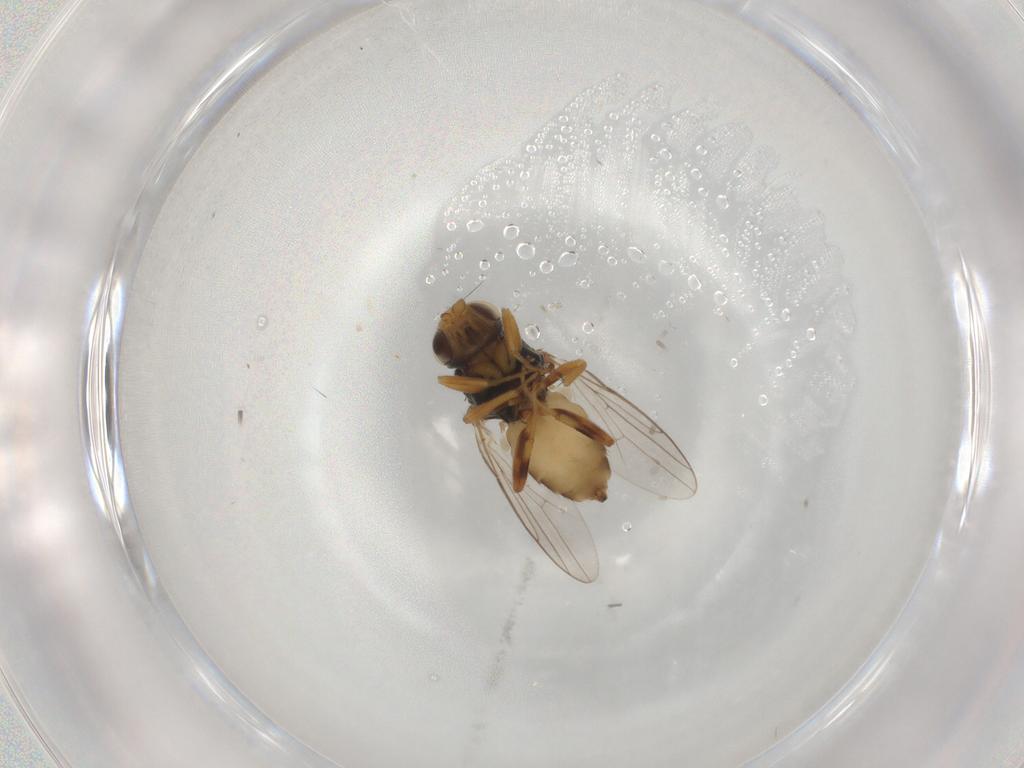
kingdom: Animalia
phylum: Arthropoda
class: Insecta
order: Diptera
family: Chloropidae
